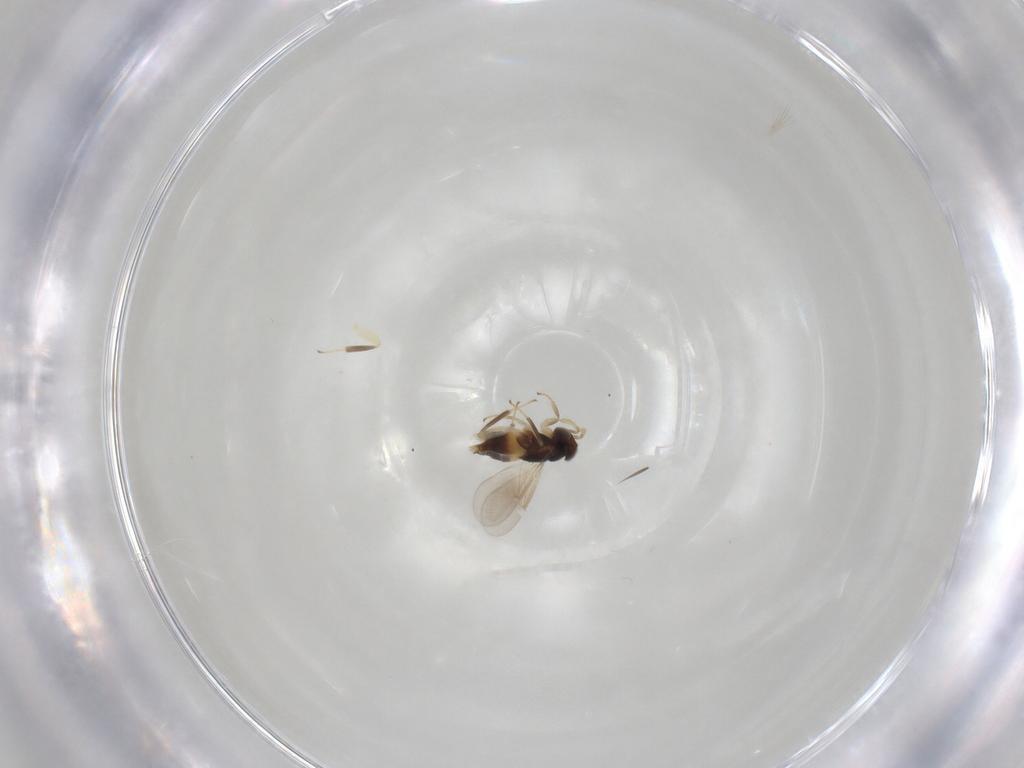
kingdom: Animalia
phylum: Arthropoda
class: Insecta
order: Hymenoptera
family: Aphelinidae
